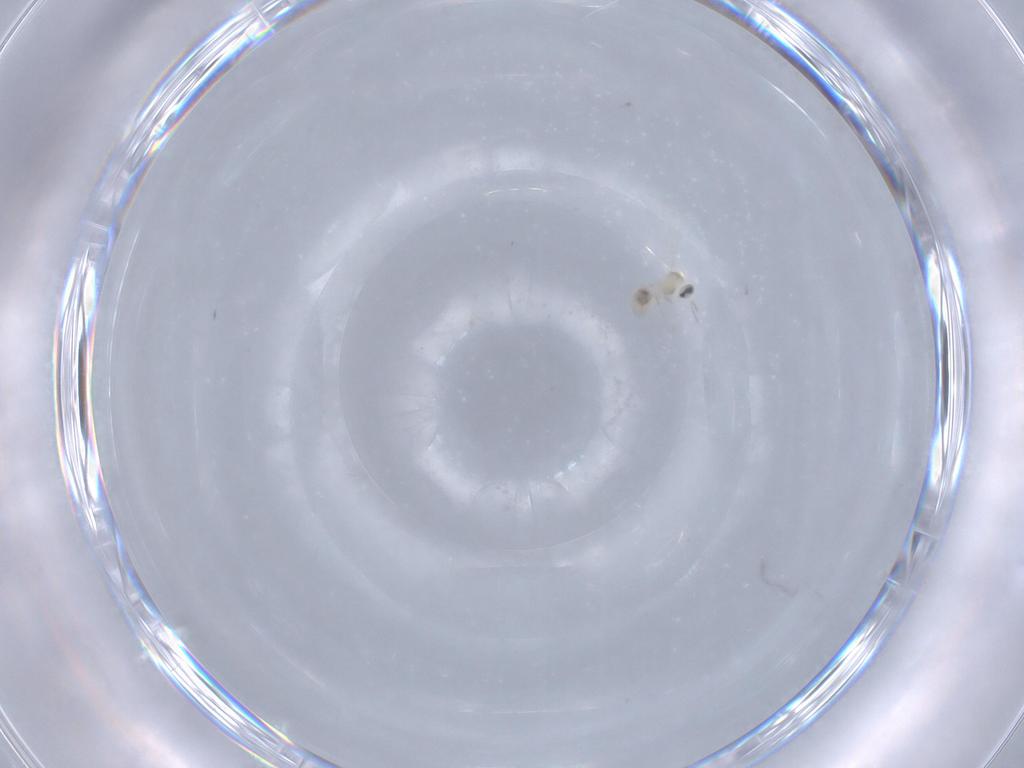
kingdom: Animalia
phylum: Arthropoda
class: Insecta
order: Diptera
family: Cecidomyiidae
